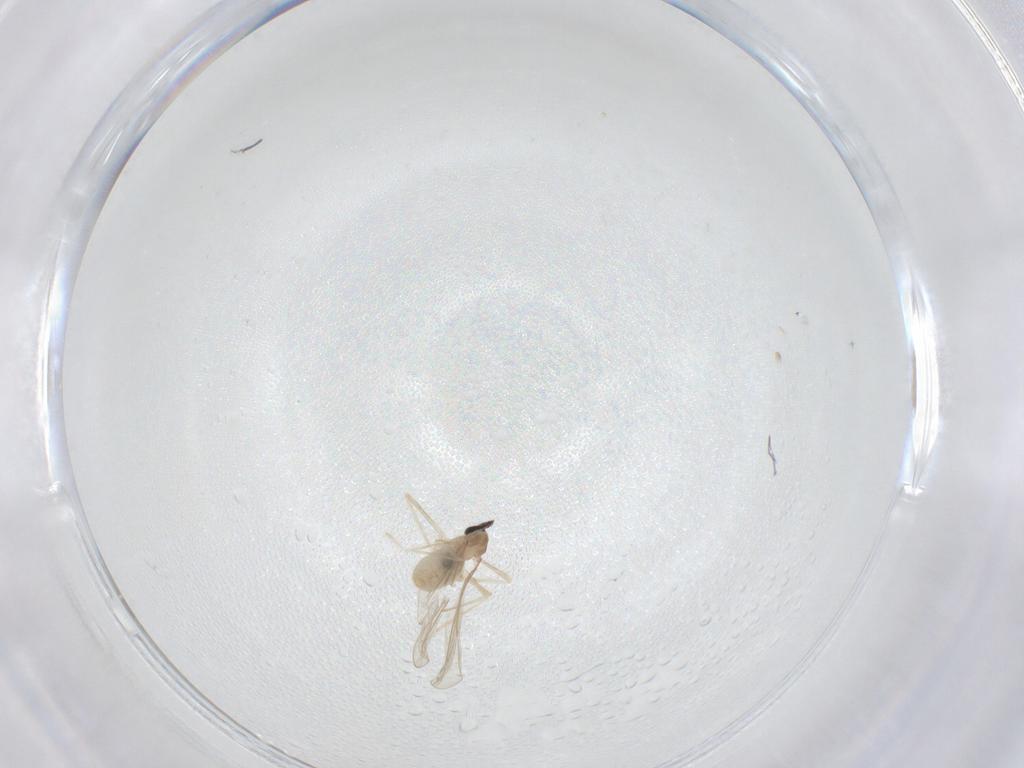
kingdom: Animalia
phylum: Arthropoda
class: Insecta
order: Diptera
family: Cecidomyiidae
